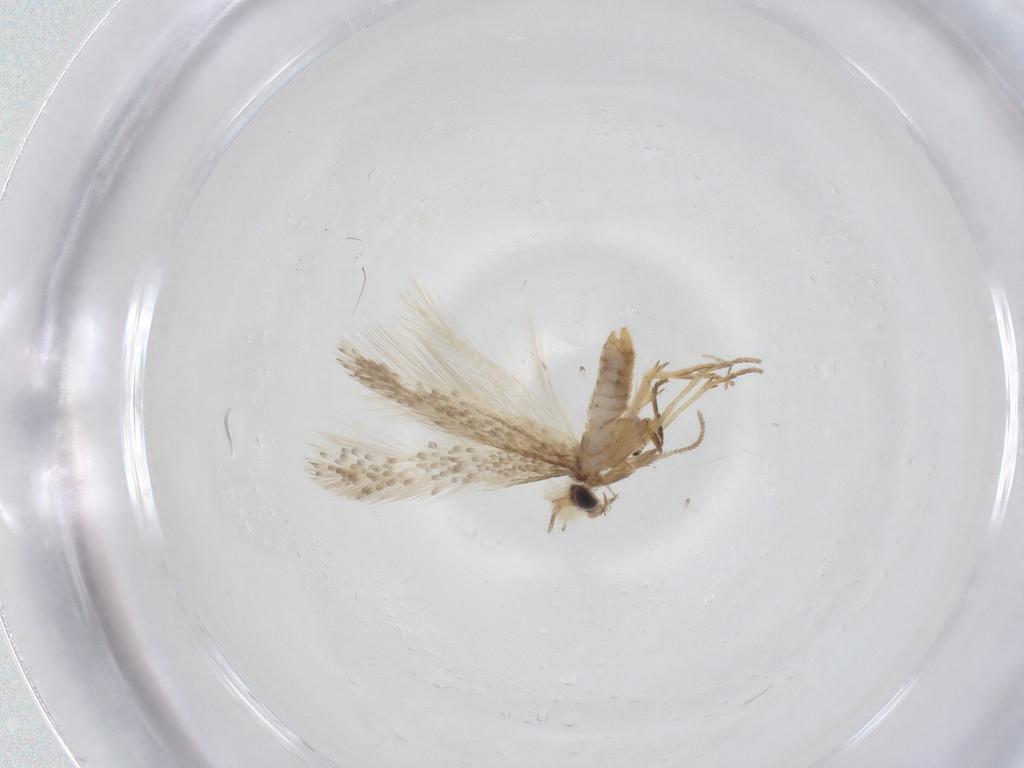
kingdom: Animalia
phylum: Arthropoda
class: Insecta
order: Lepidoptera
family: Nepticulidae
